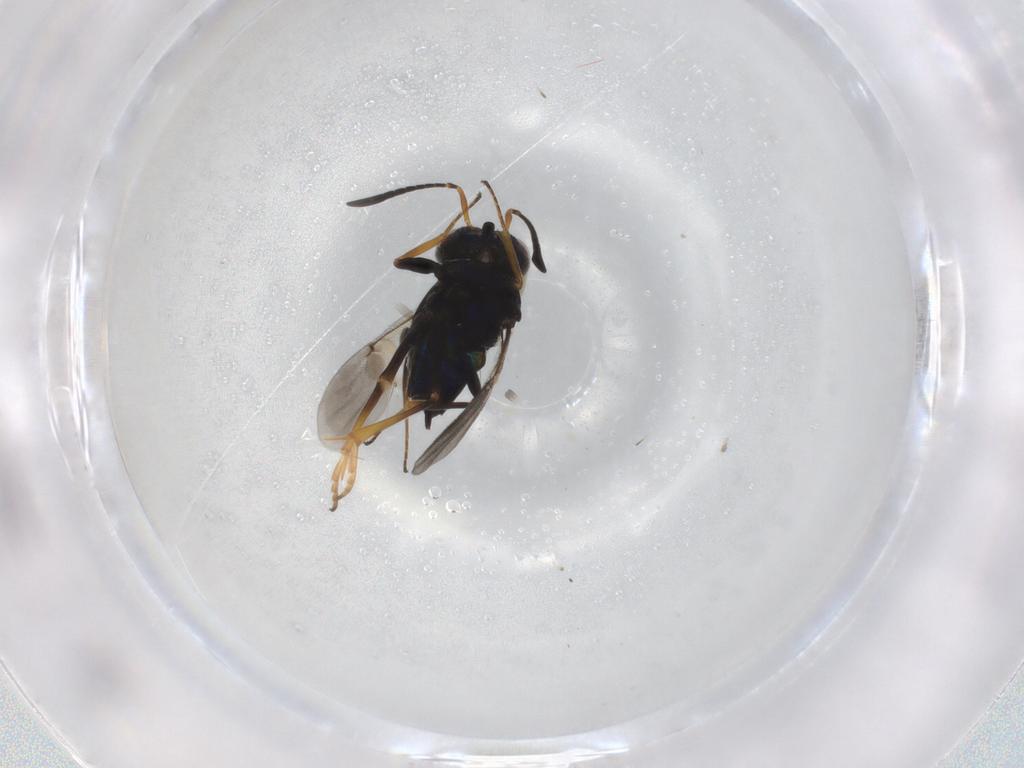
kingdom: Animalia
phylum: Arthropoda
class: Insecta
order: Hymenoptera
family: Encyrtidae
